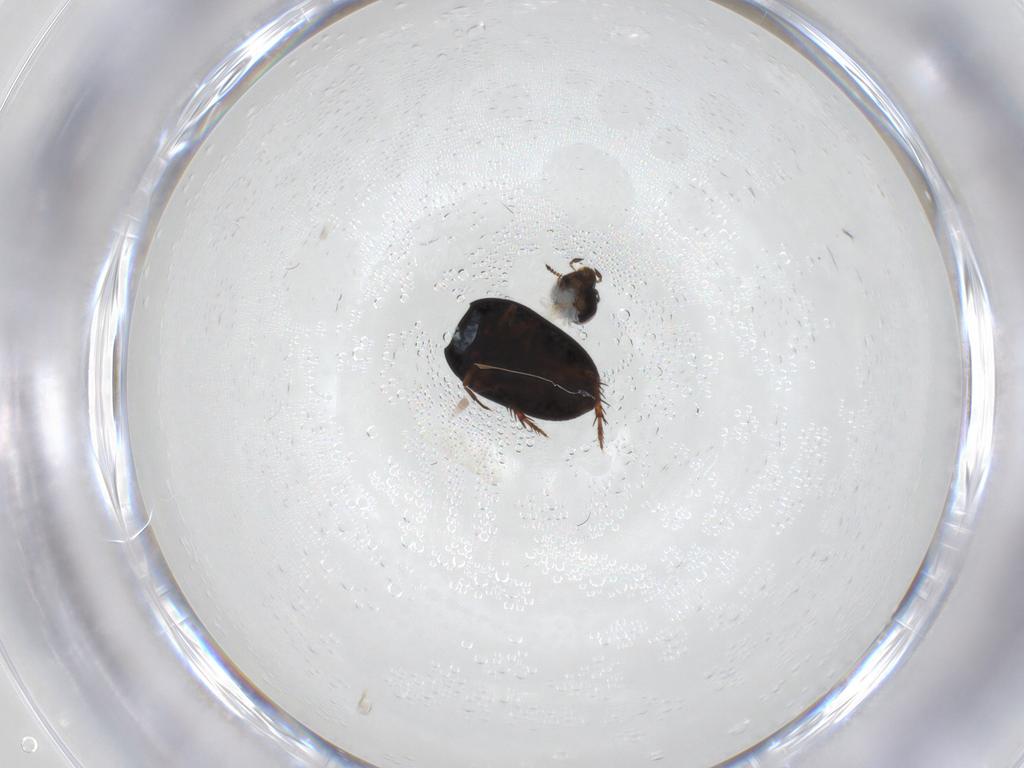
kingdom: Animalia
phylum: Arthropoda
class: Insecta
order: Coleoptera
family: Limnichidae
